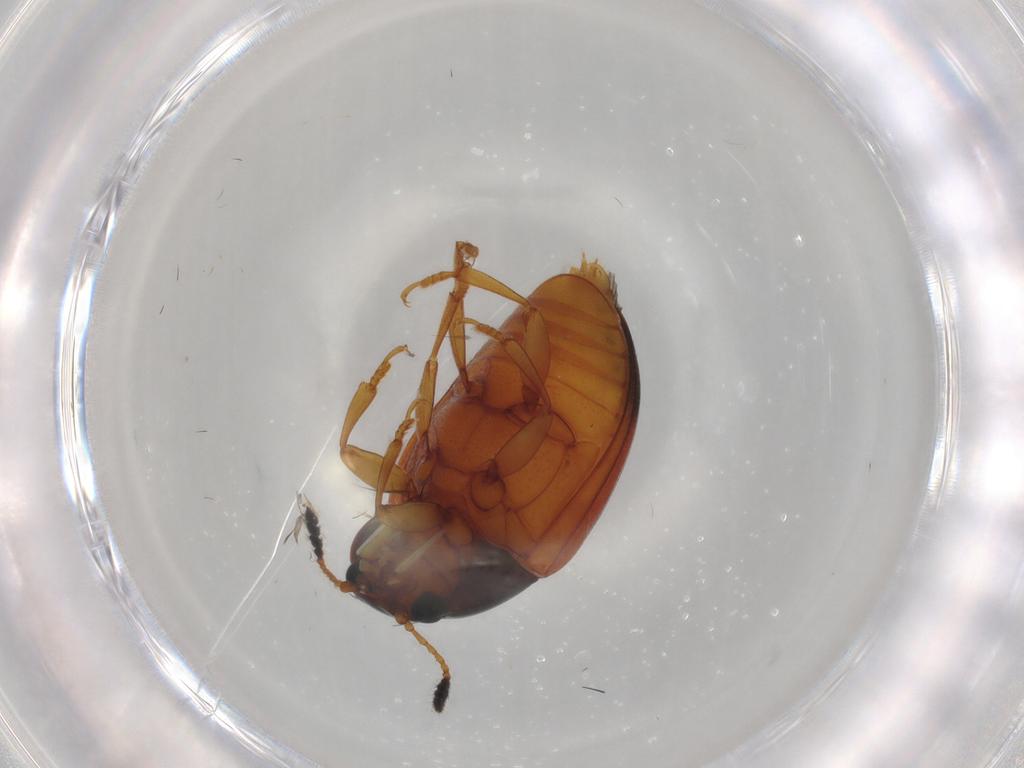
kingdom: Animalia
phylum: Arthropoda
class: Insecta
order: Coleoptera
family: Erotylidae
